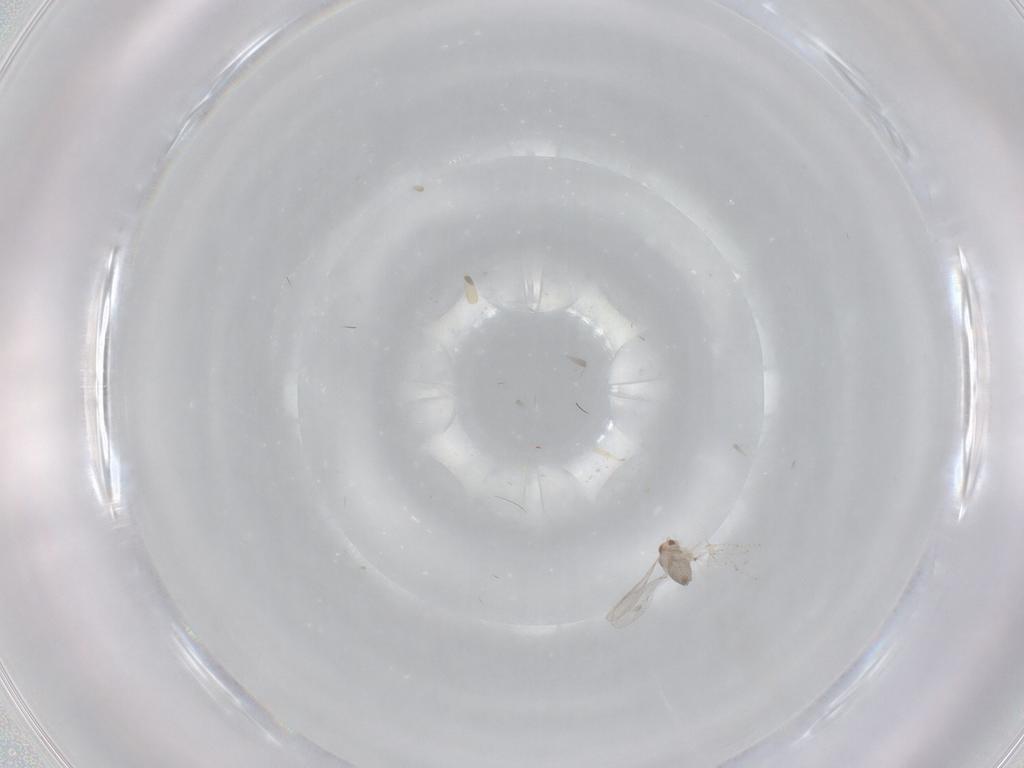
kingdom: Animalia
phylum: Arthropoda
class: Insecta
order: Diptera
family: Cecidomyiidae
